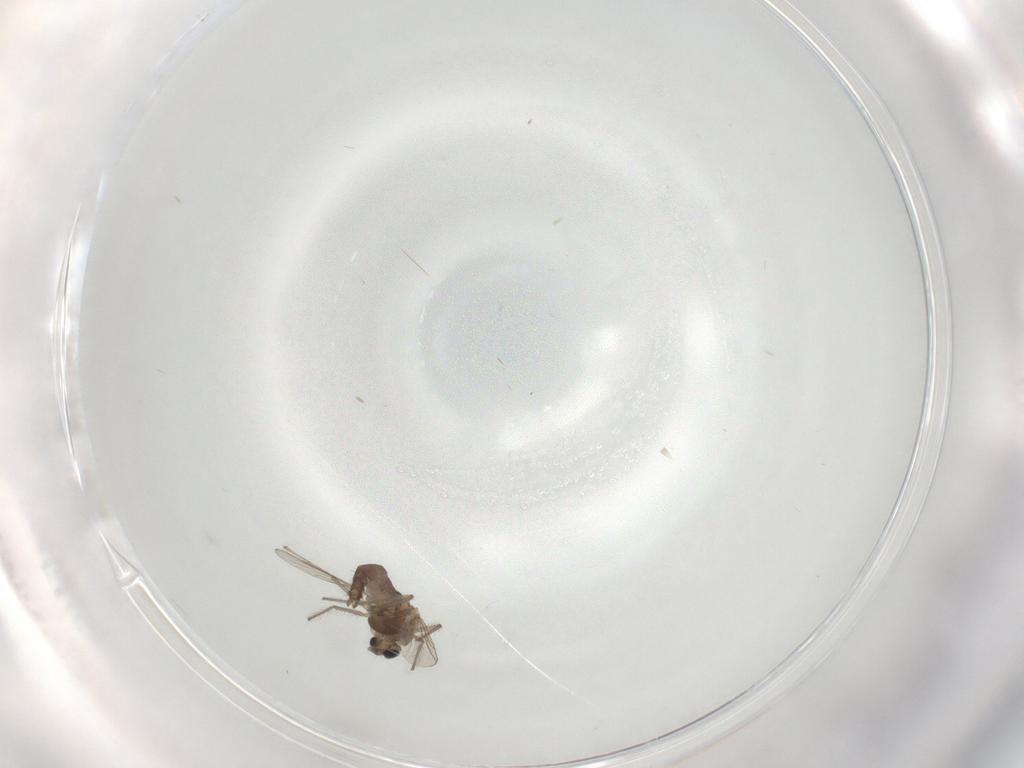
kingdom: Animalia
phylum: Arthropoda
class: Insecta
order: Diptera
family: Chironomidae
